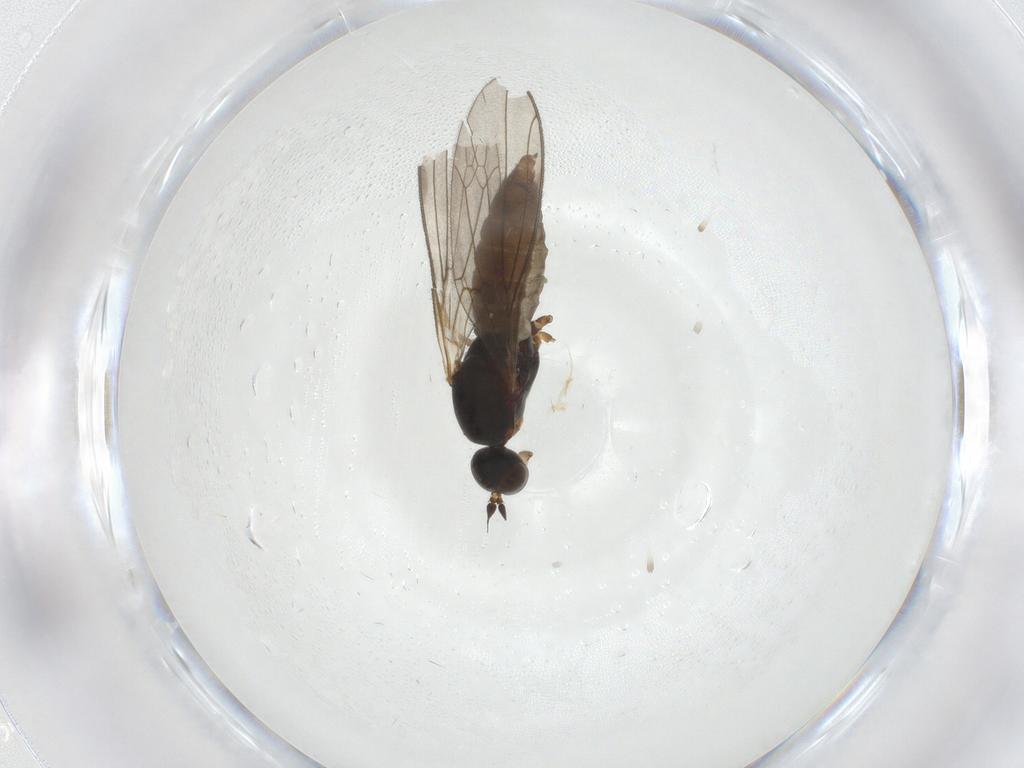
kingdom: Animalia
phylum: Arthropoda
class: Insecta
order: Diptera
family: Empididae
